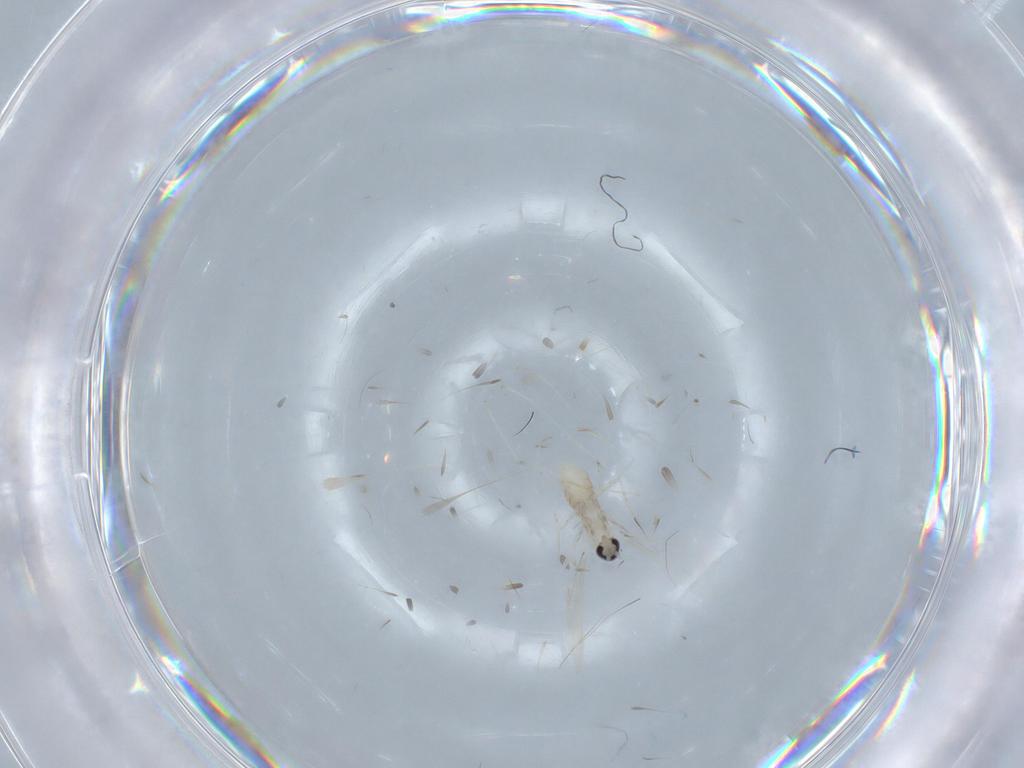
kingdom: Animalia
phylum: Arthropoda
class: Insecta
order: Diptera
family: Cecidomyiidae
